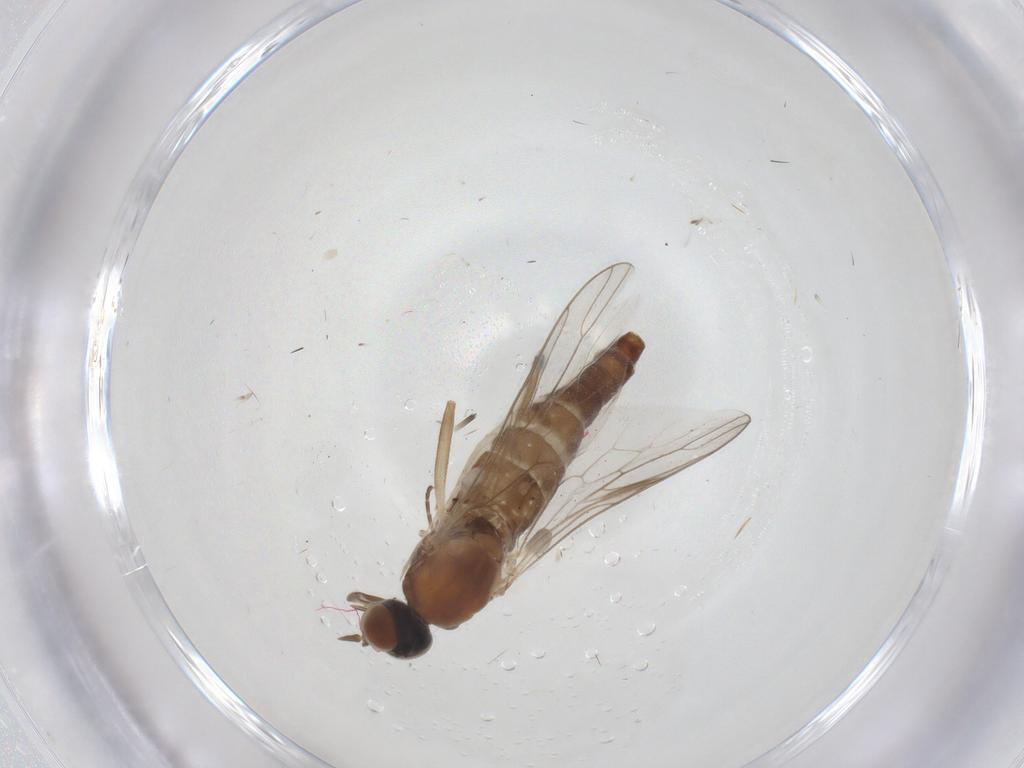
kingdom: Animalia
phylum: Arthropoda
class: Insecta
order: Diptera
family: Scenopinidae
